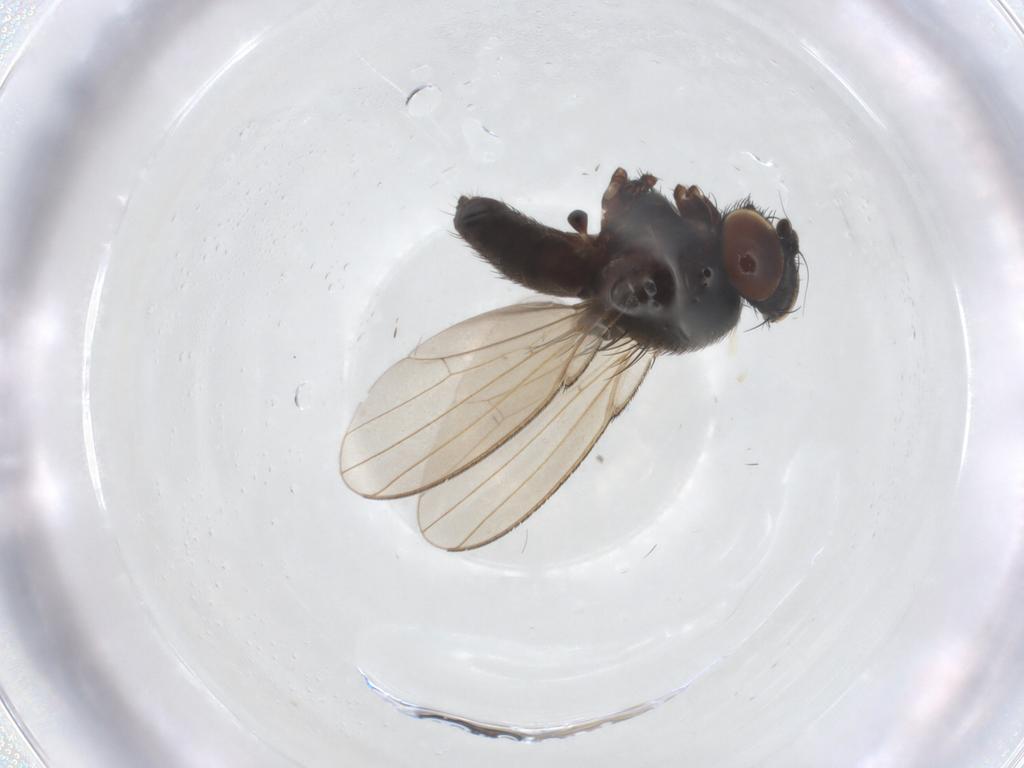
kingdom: Animalia
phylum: Arthropoda
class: Insecta
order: Diptera
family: Milichiidae
